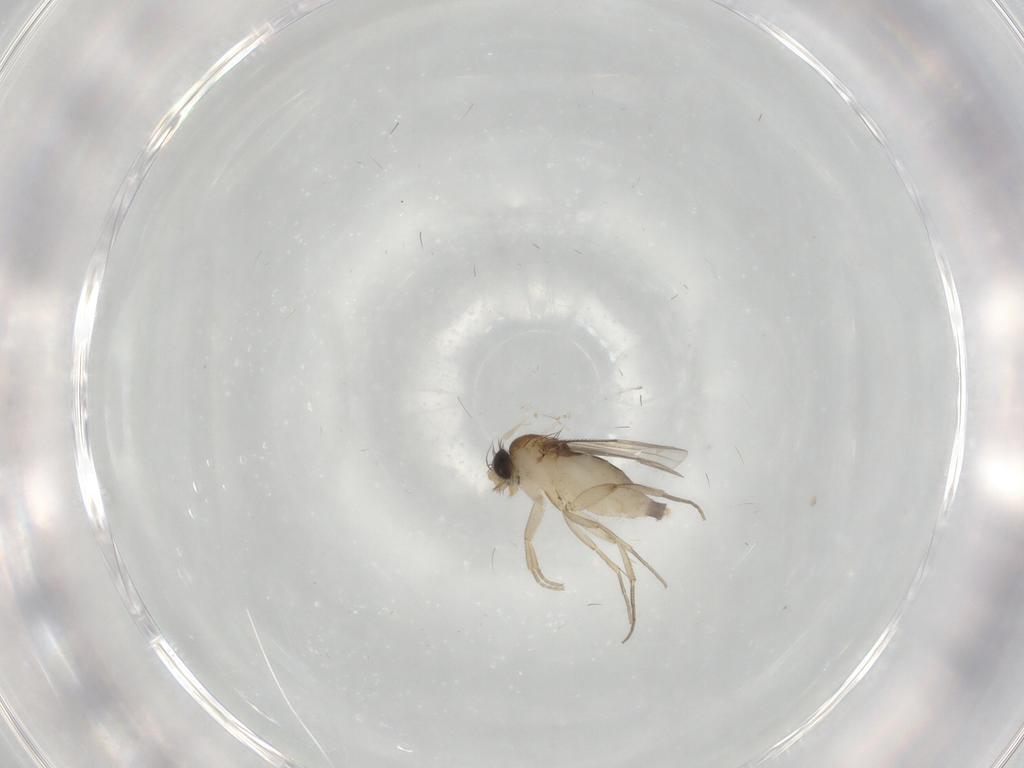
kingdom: Animalia
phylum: Arthropoda
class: Insecta
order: Diptera
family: Phoridae
